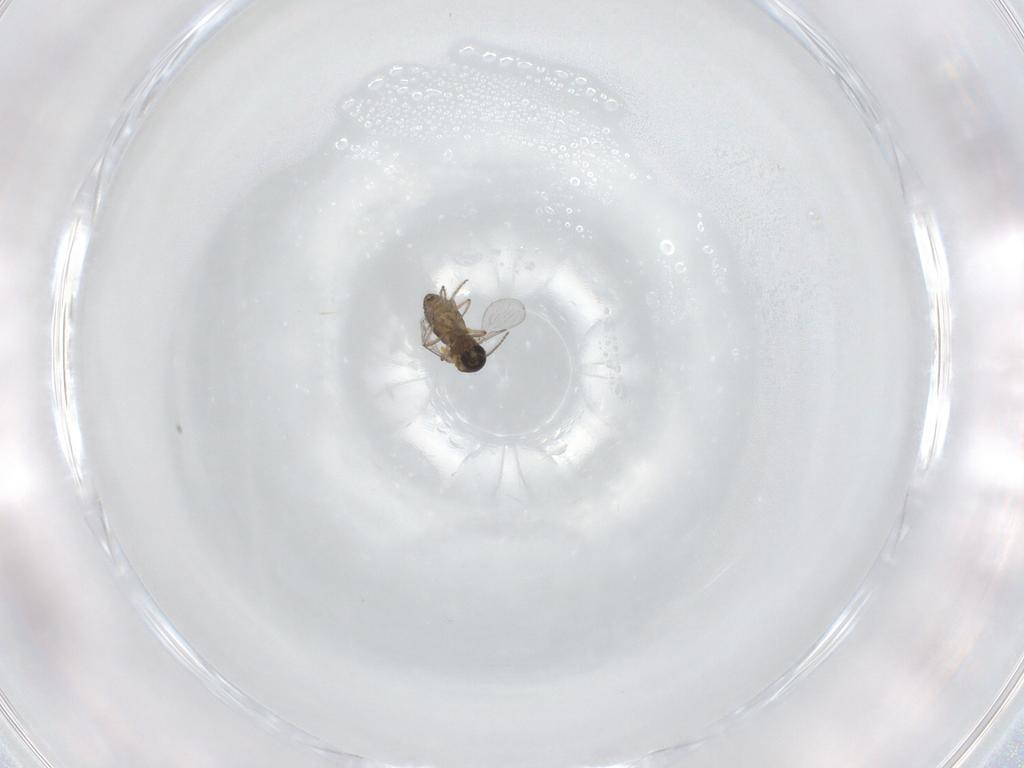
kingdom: Animalia
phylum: Arthropoda
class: Insecta
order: Diptera
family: Ceratopogonidae
